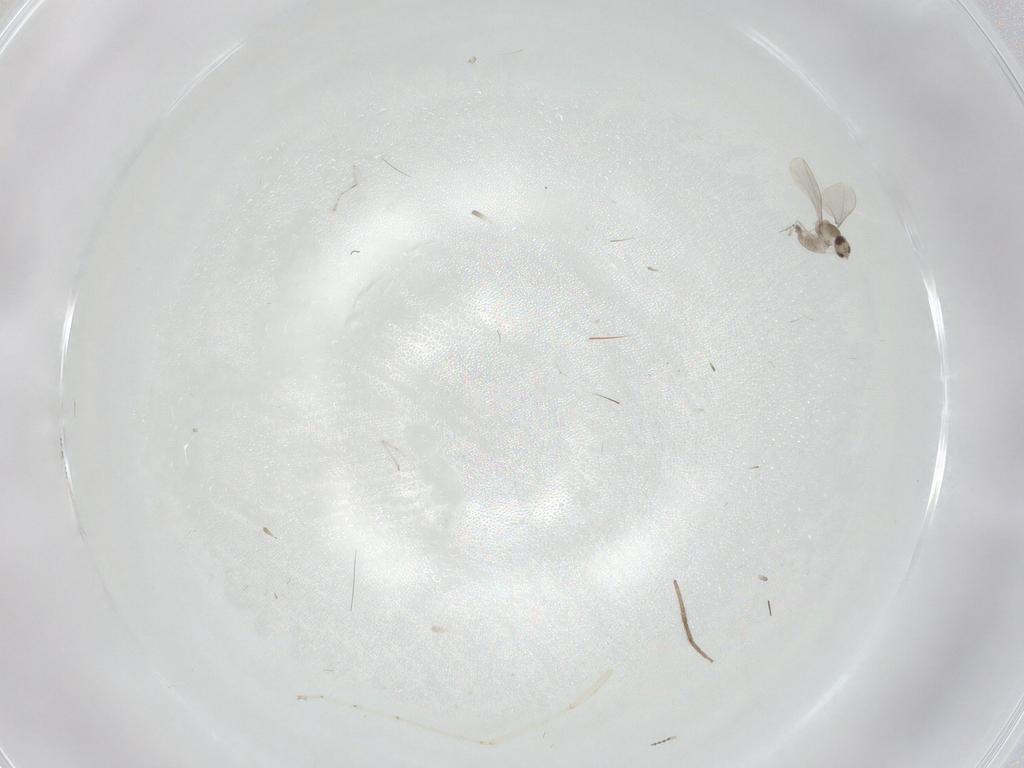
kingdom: Animalia
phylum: Arthropoda
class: Insecta
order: Diptera
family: Cecidomyiidae
